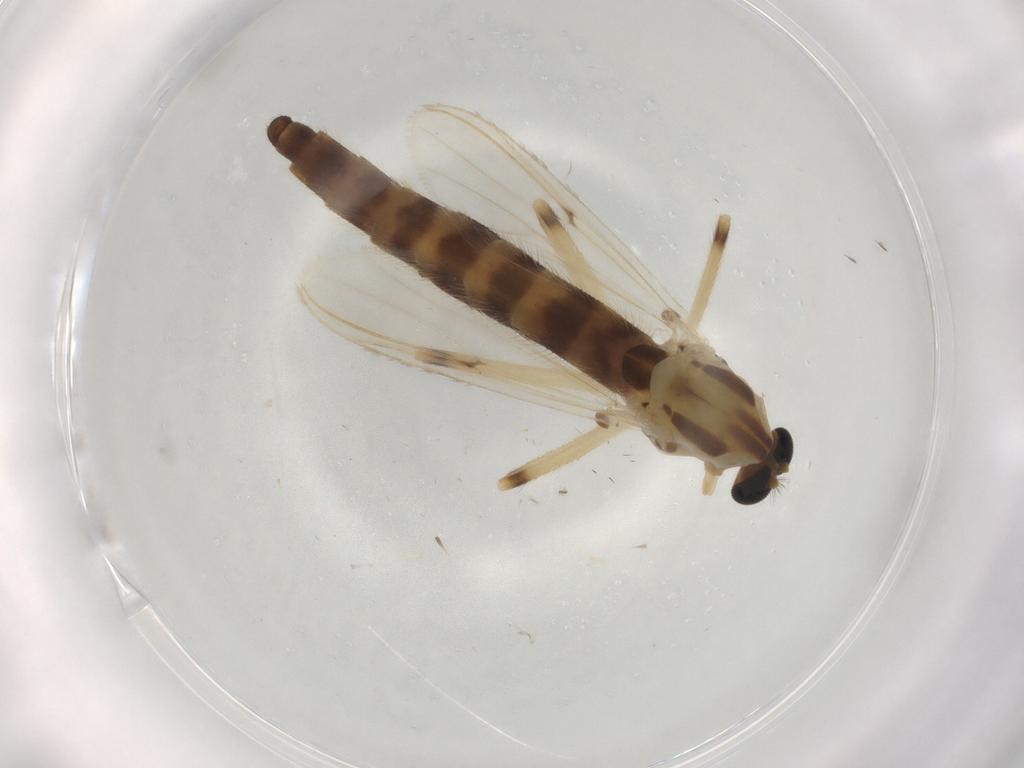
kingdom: Animalia
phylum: Arthropoda
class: Insecta
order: Diptera
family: Chironomidae
